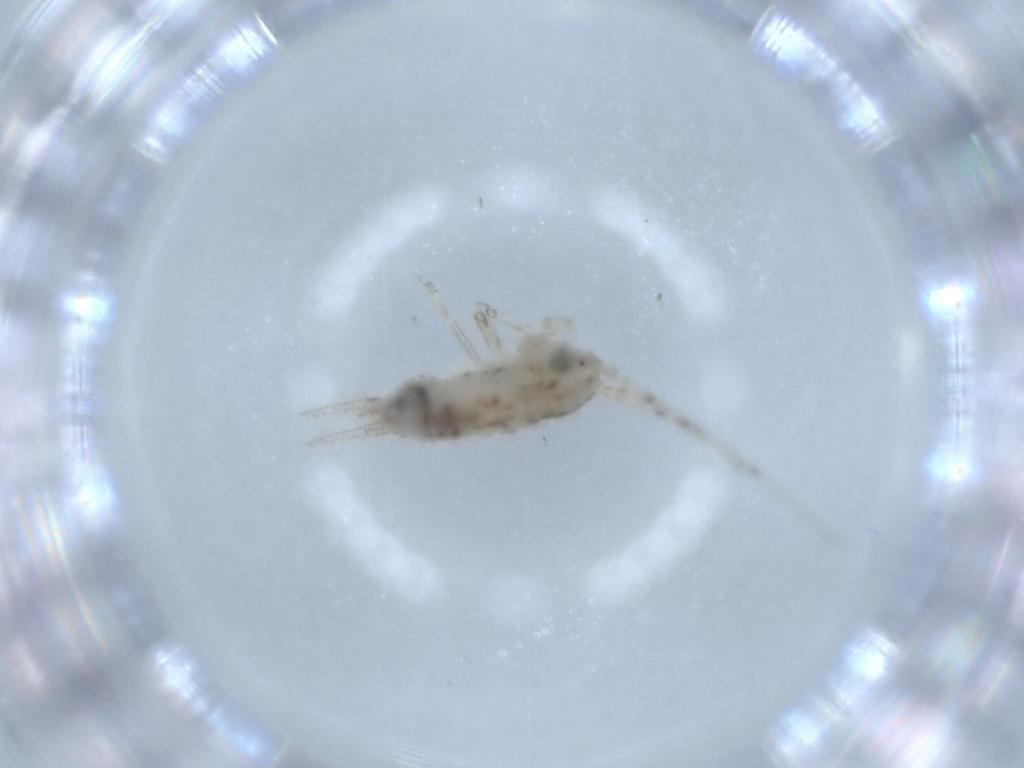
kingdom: Animalia
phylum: Arthropoda
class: Insecta
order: Orthoptera
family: Trigonidiidae
